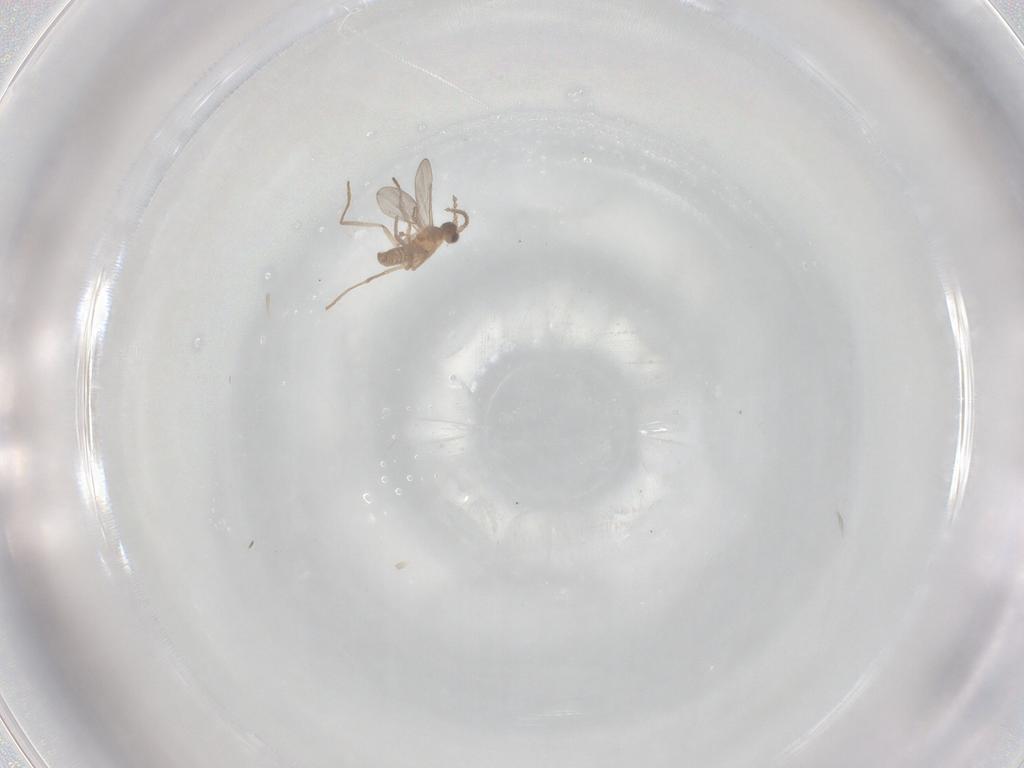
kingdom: Animalia
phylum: Arthropoda
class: Insecta
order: Diptera
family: Cecidomyiidae
